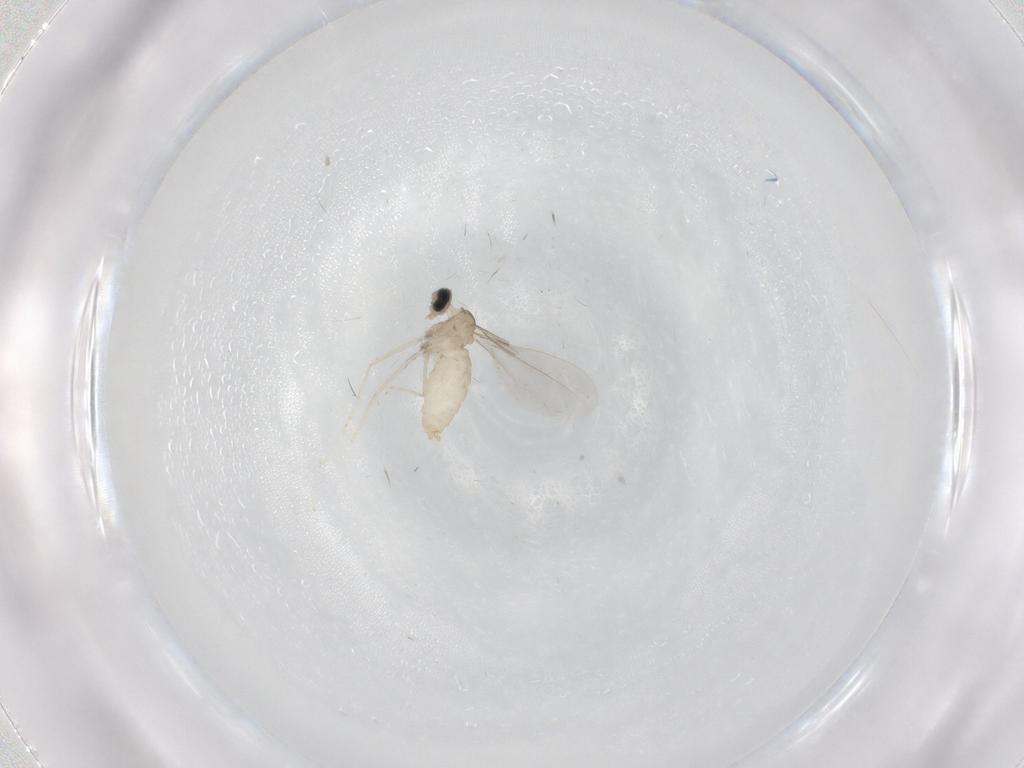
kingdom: Animalia
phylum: Arthropoda
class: Insecta
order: Diptera
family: Cecidomyiidae
